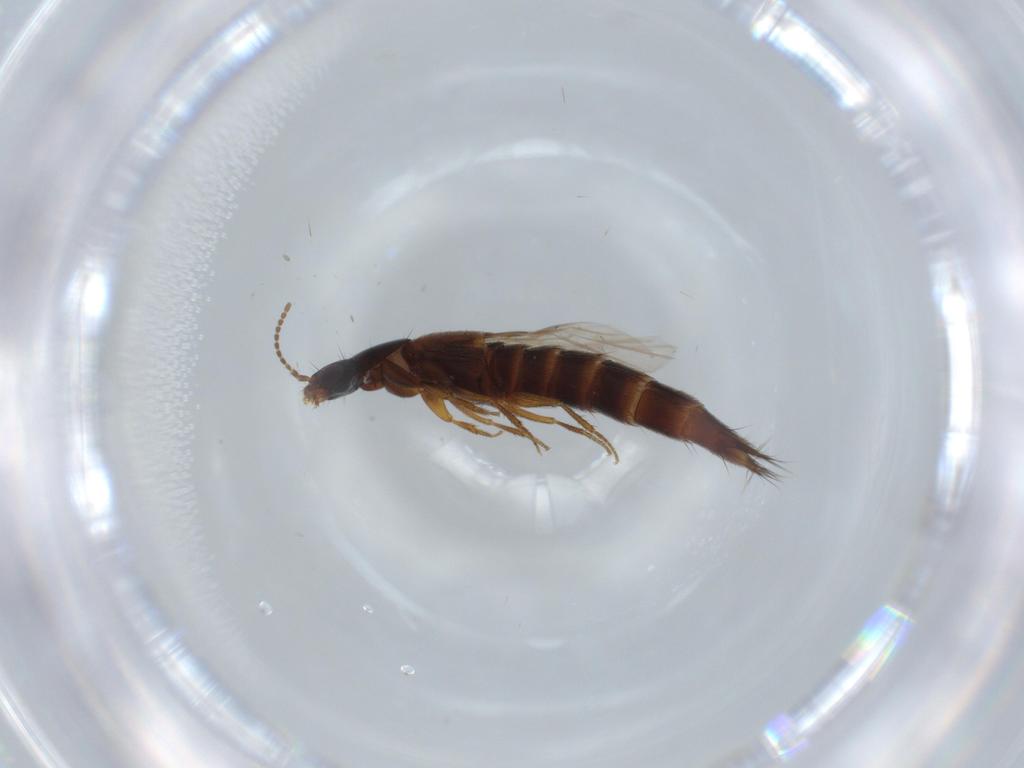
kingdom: Animalia
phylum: Arthropoda
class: Insecta
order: Coleoptera
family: Staphylinidae
